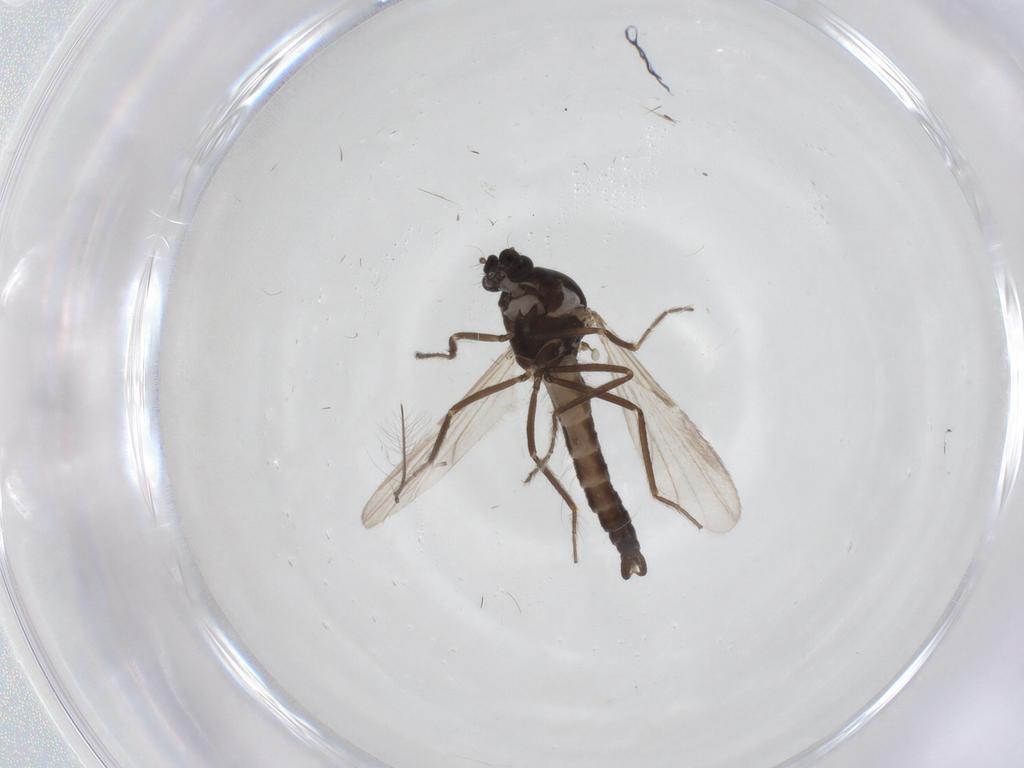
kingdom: Animalia
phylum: Arthropoda
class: Insecta
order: Diptera
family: Ceratopogonidae
